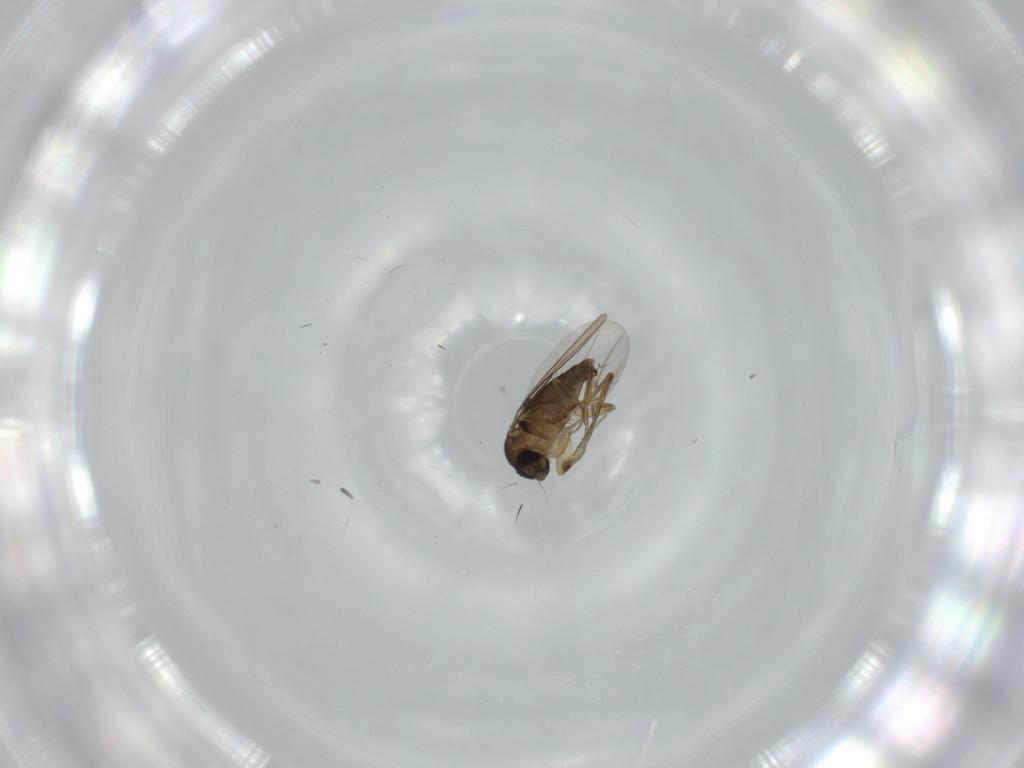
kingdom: Animalia
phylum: Arthropoda
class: Insecta
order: Diptera
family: Phoridae
